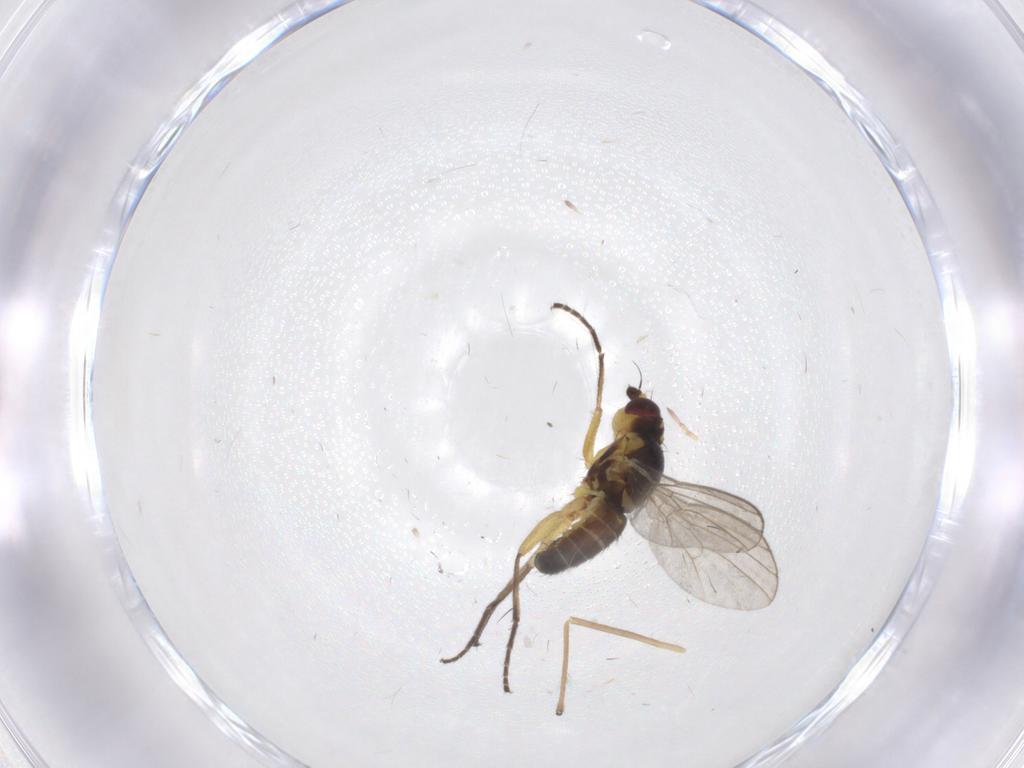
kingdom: Animalia
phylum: Arthropoda
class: Insecta
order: Diptera
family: Agromyzidae
